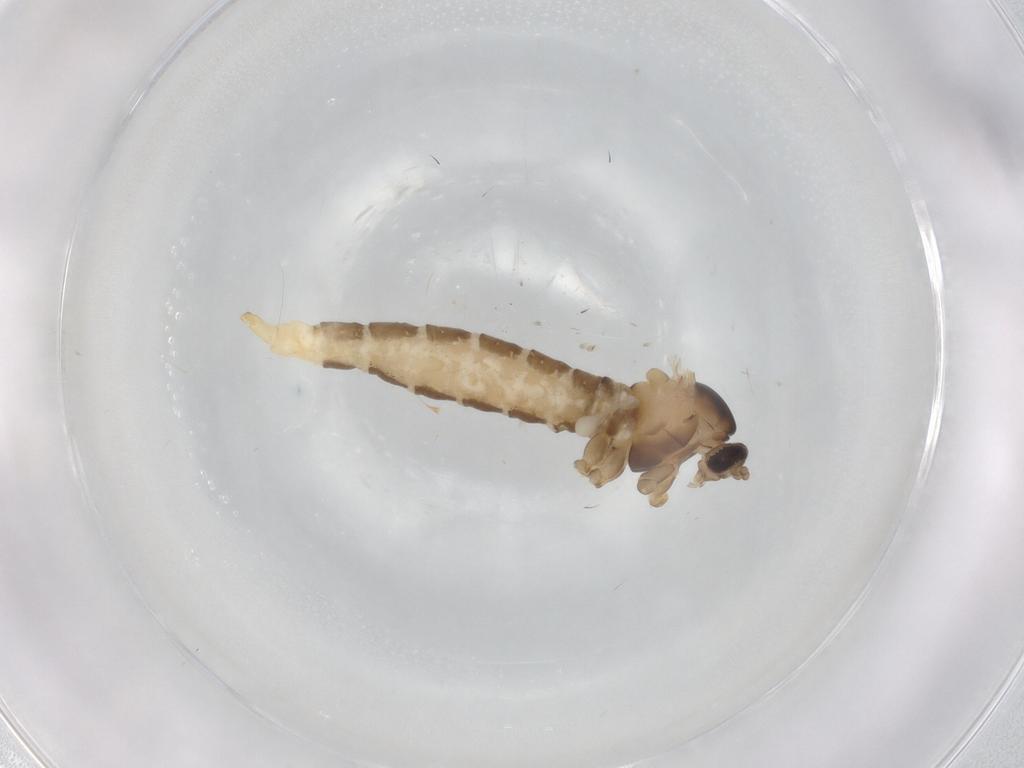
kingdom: Animalia
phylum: Arthropoda
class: Insecta
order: Diptera
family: Cecidomyiidae
